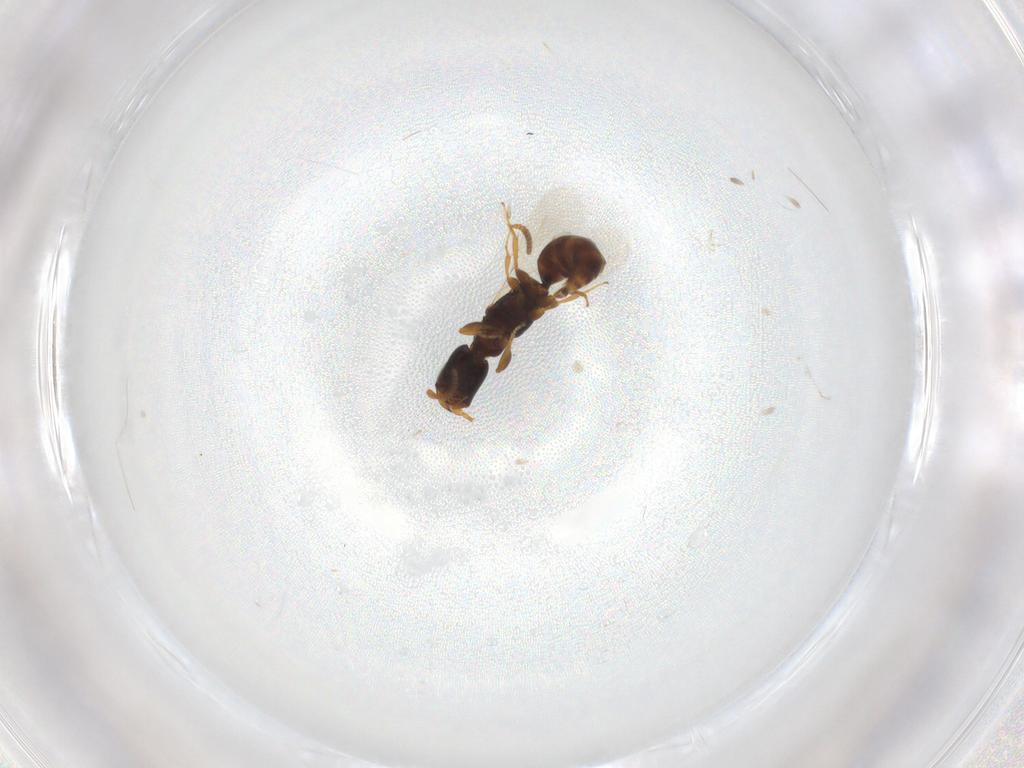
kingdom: Animalia
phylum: Arthropoda
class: Insecta
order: Hymenoptera
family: Bethylidae
